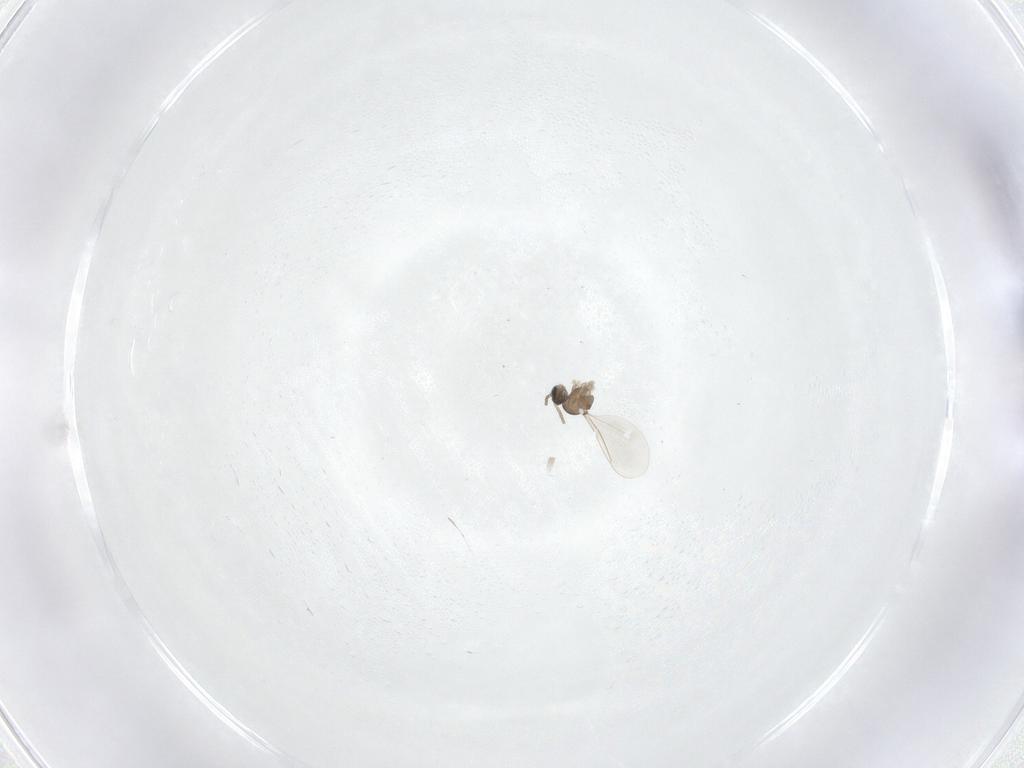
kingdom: Animalia
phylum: Arthropoda
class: Insecta
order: Diptera
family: Cecidomyiidae
